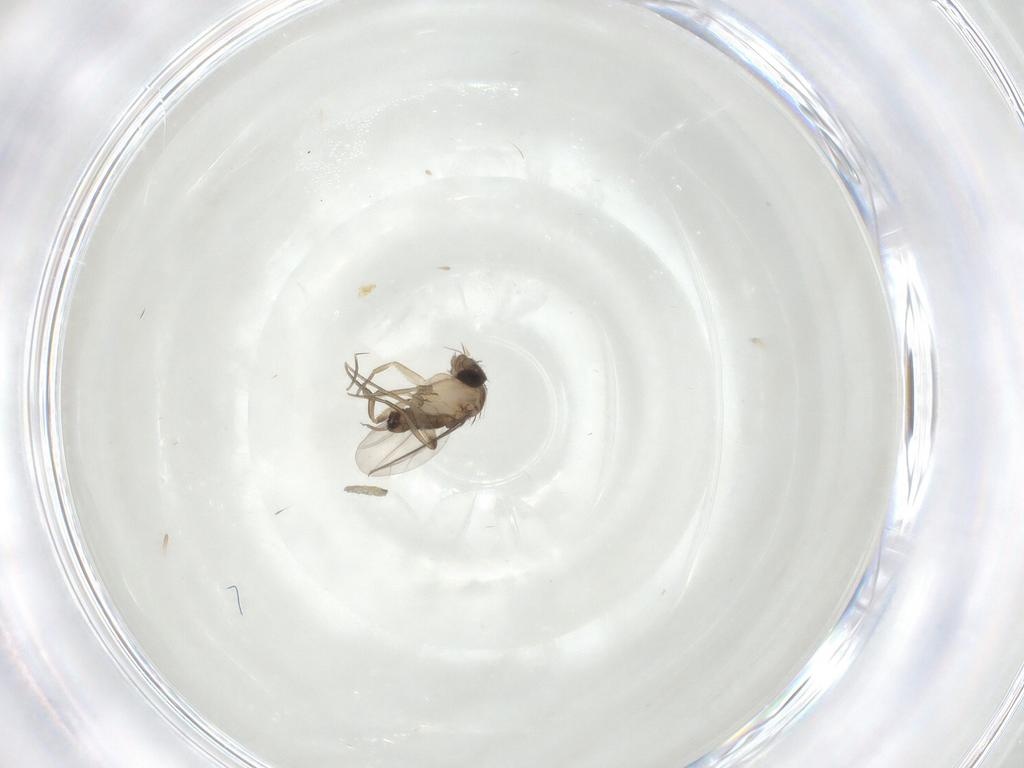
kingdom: Animalia
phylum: Arthropoda
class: Insecta
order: Diptera
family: Phoridae
